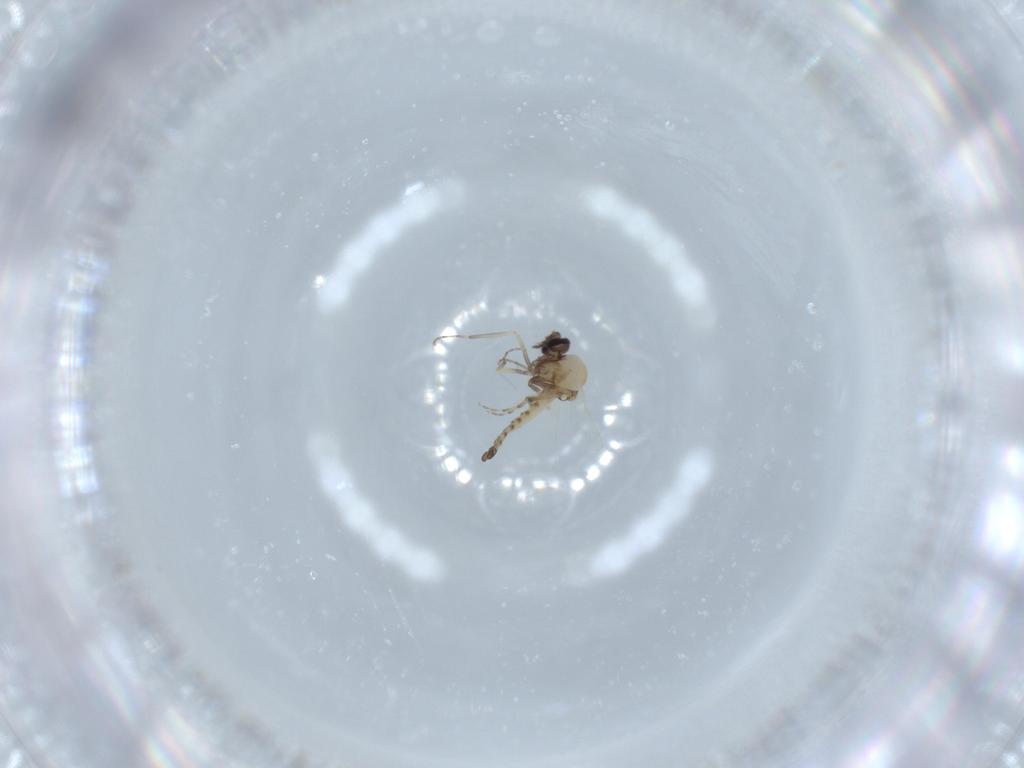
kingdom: Animalia
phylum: Arthropoda
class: Insecta
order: Diptera
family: Ceratopogonidae
